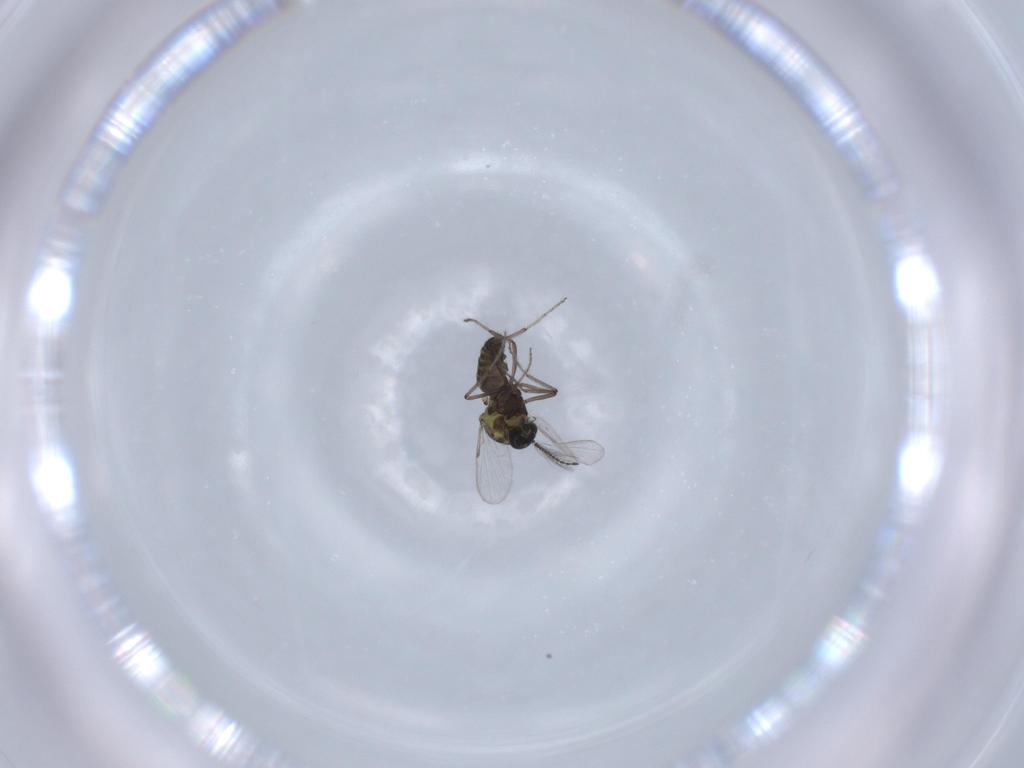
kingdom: Animalia
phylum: Arthropoda
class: Insecta
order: Diptera
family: Ceratopogonidae
